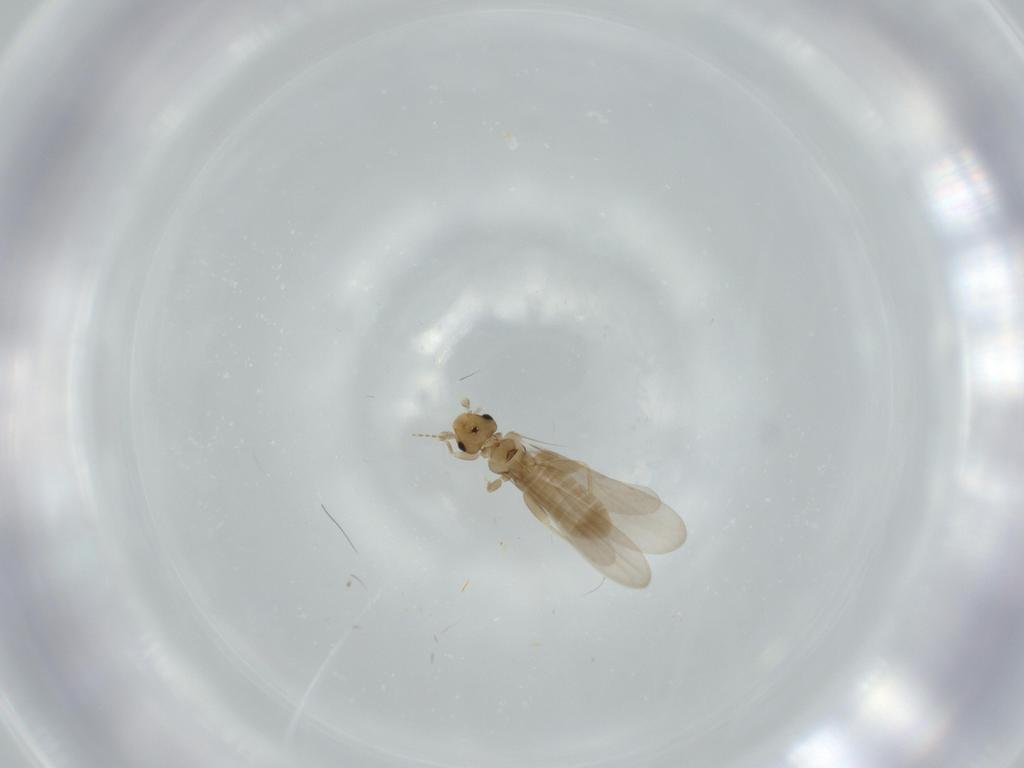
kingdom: Animalia
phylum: Arthropoda
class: Insecta
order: Psocodea
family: Liposcelididae
